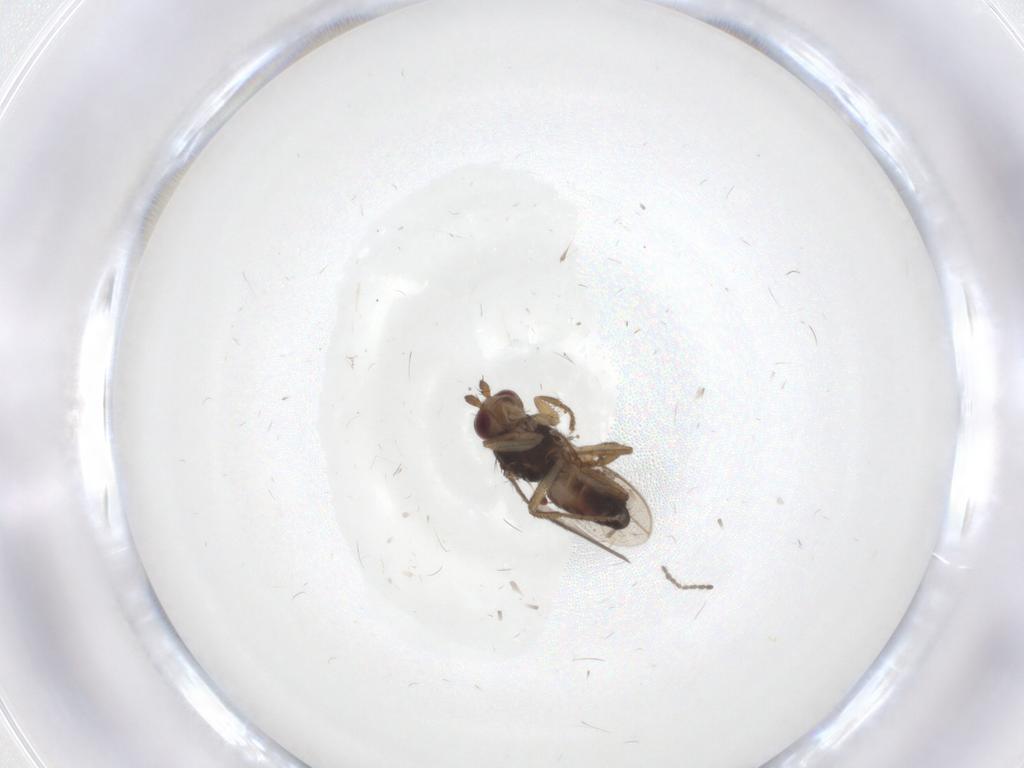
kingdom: Animalia
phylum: Arthropoda
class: Insecta
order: Diptera
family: Sphaeroceridae
